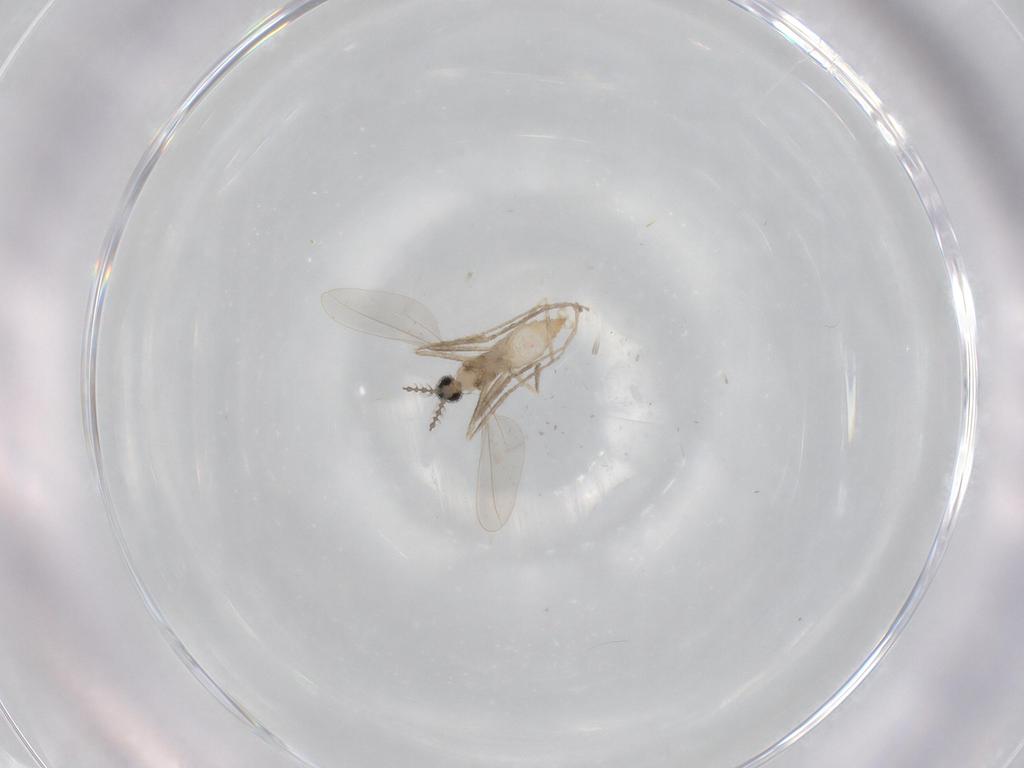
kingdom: Animalia
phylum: Arthropoda
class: Insecta
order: Diptera
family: Cecidomyiidae
